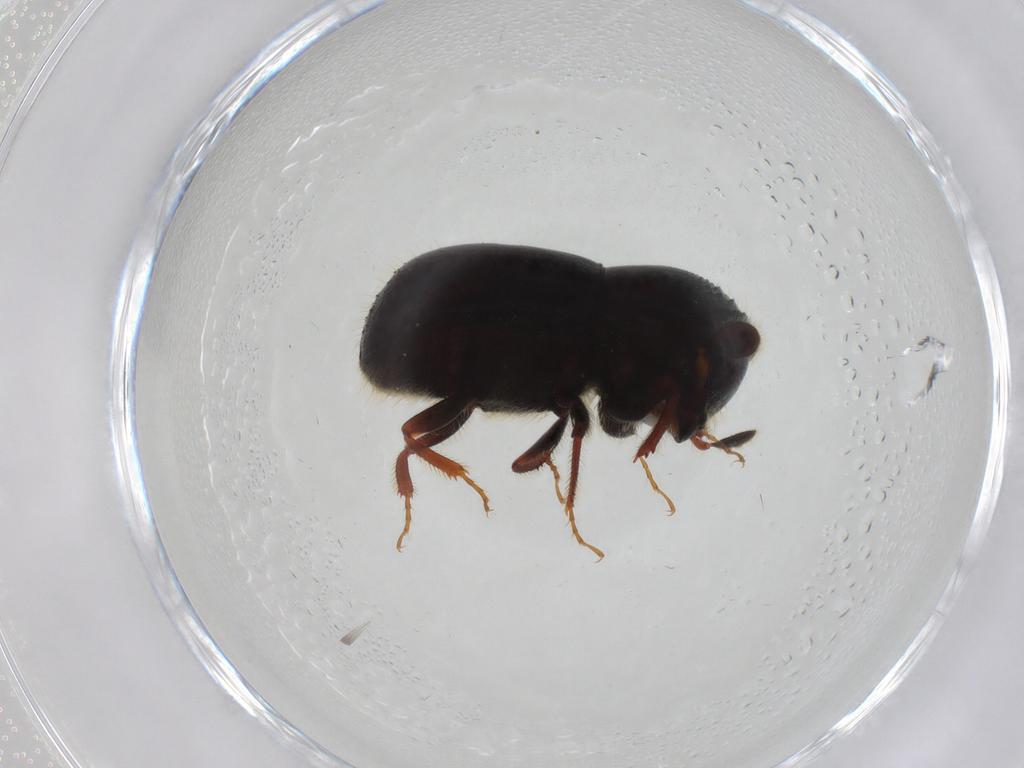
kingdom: Animalia
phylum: Arthropoda
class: Insecta
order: Coleoptera
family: Curculionidae
